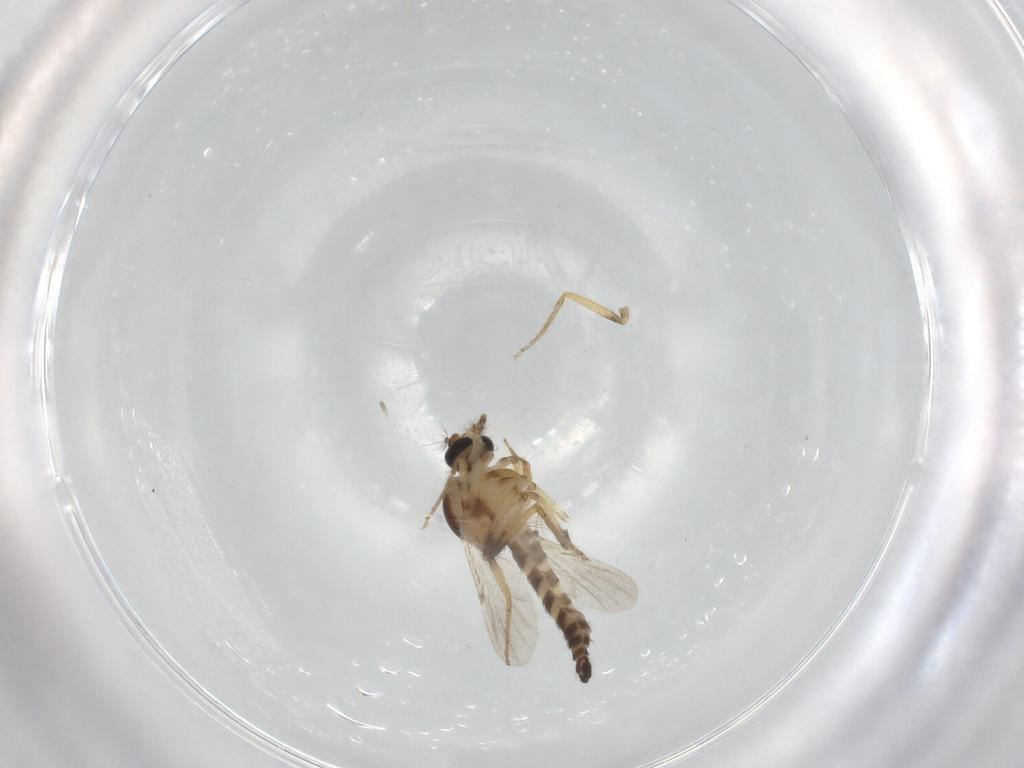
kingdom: Animalia
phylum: Arthropoda
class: Insecta
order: Diptera
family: Ceratopogonidae
